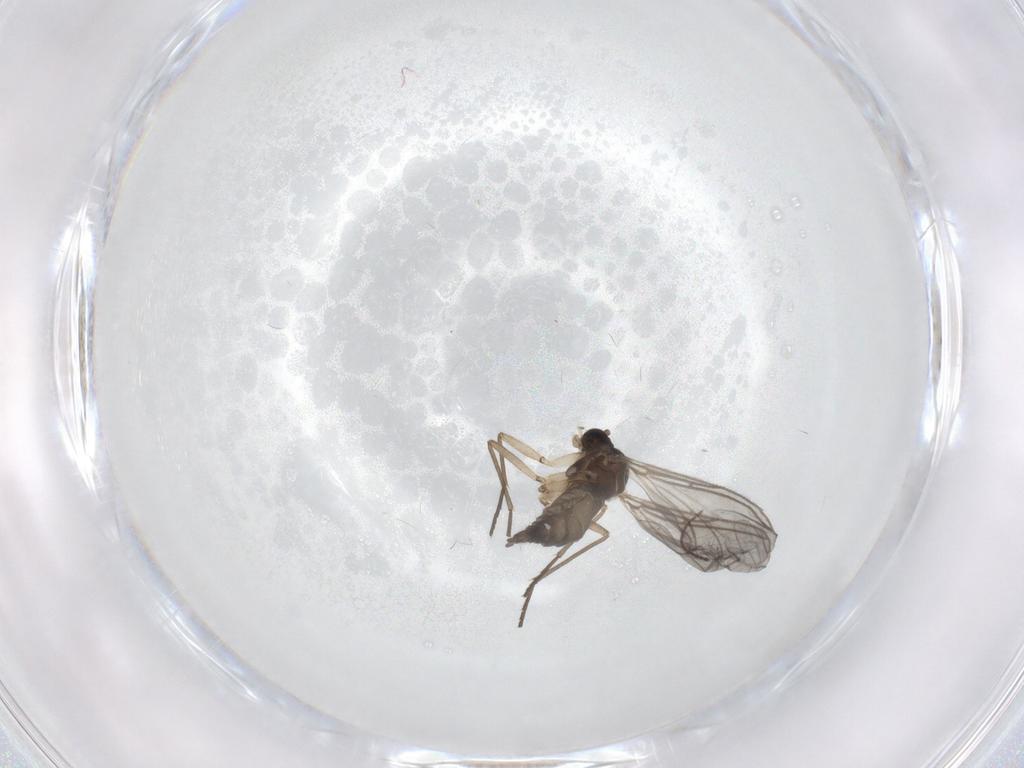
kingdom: Animalia
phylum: Arthropoda
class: Insecta
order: Diptera
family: Sciaridae
